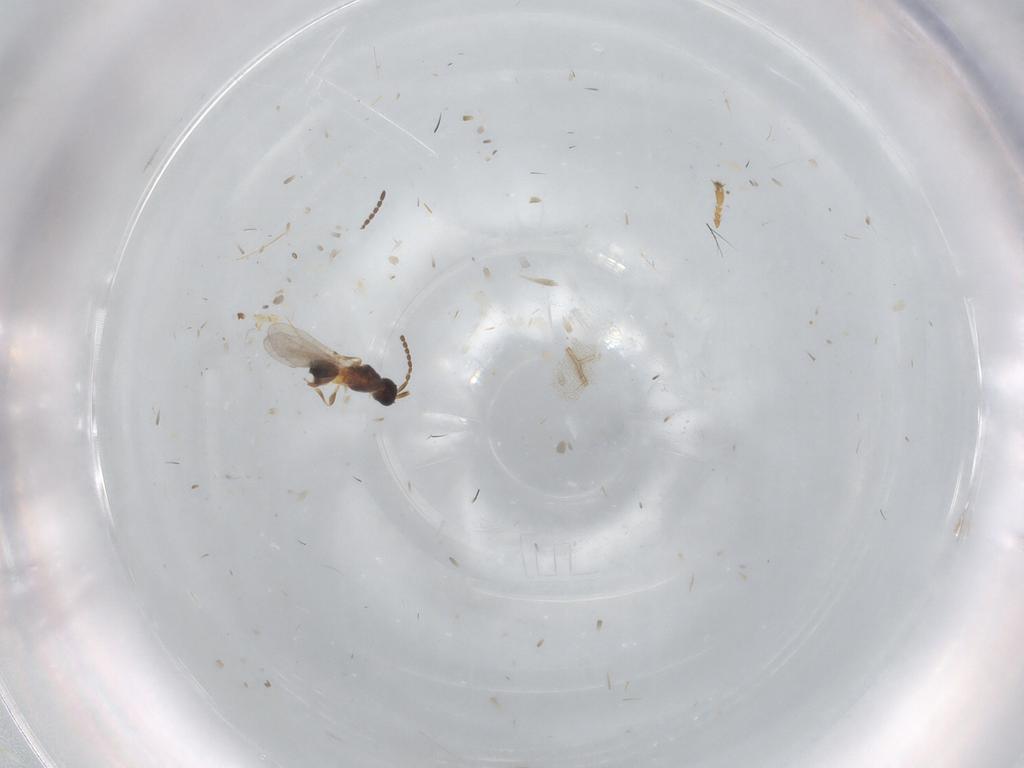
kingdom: Animalia
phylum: Arthropoda
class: Insecta
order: Hymenoptera
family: Diapriidae
